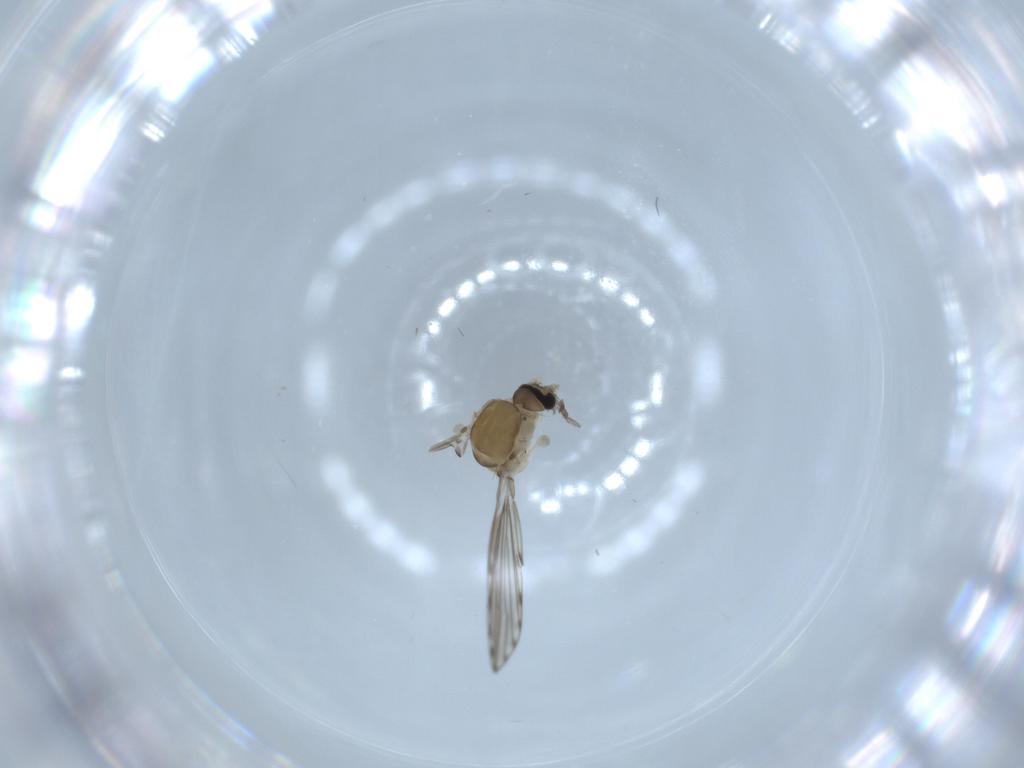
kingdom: Animalia
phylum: Arthropoda
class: Insecta
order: Diptera
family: Psychodidae
